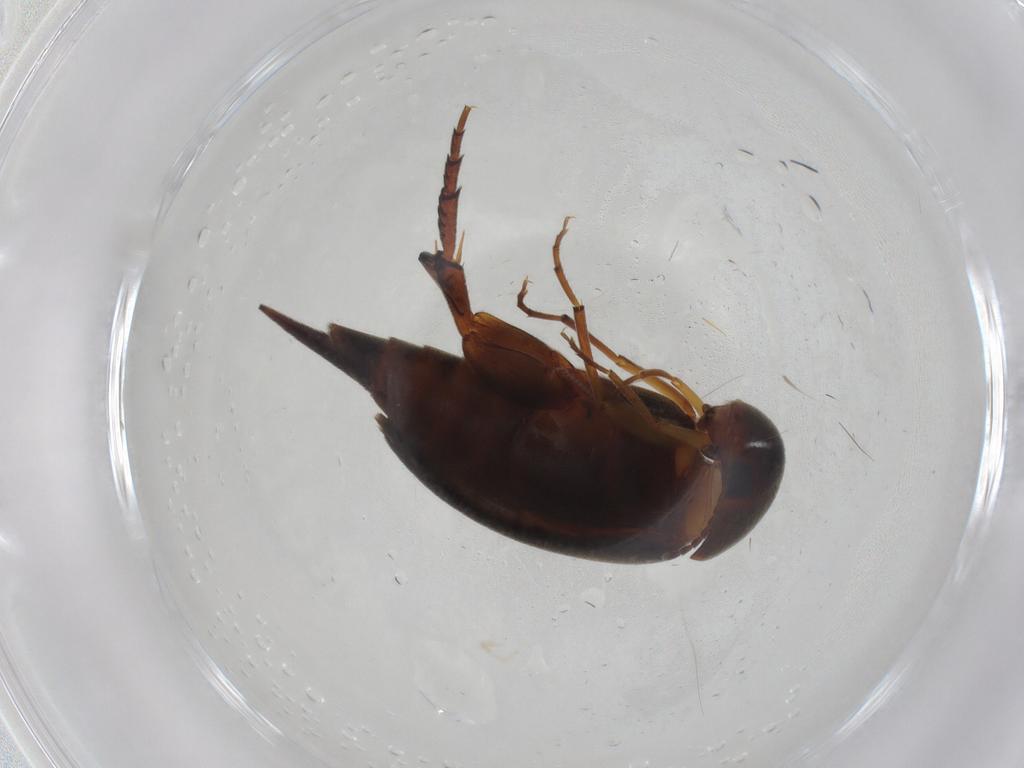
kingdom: Animalia
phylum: Arthropoda
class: Insecta
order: Coleoptera
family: Mordellidae
